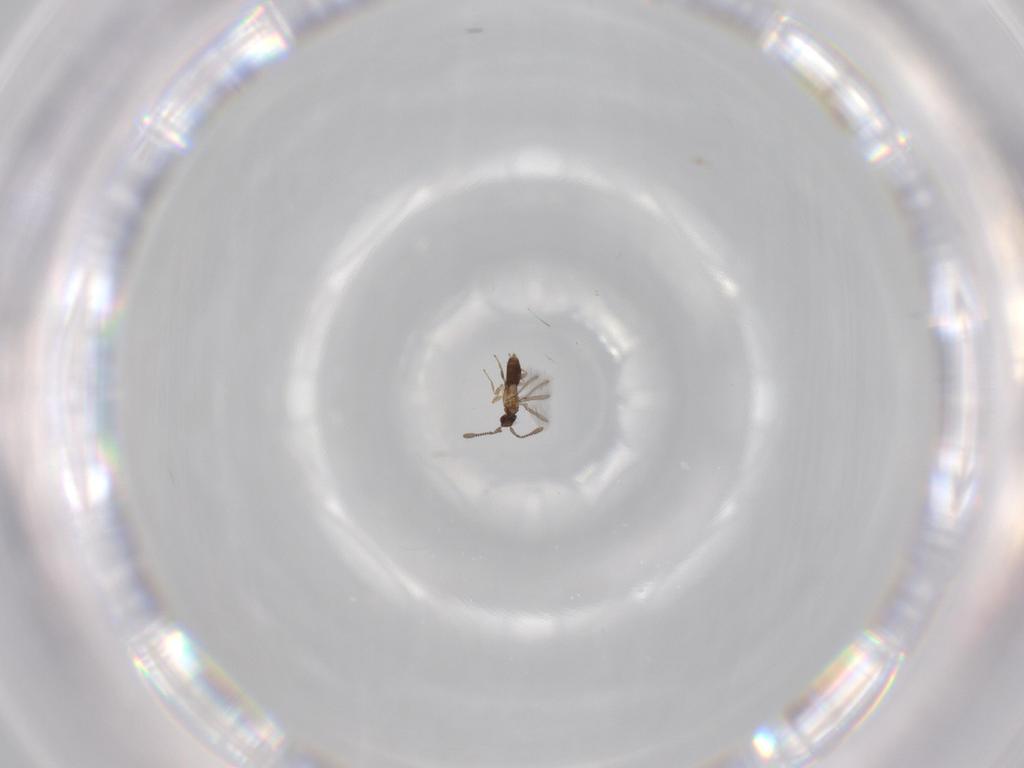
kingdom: Animalia
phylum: Arthropoda
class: Insecta
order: Hymenoptera
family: Mymaridae
